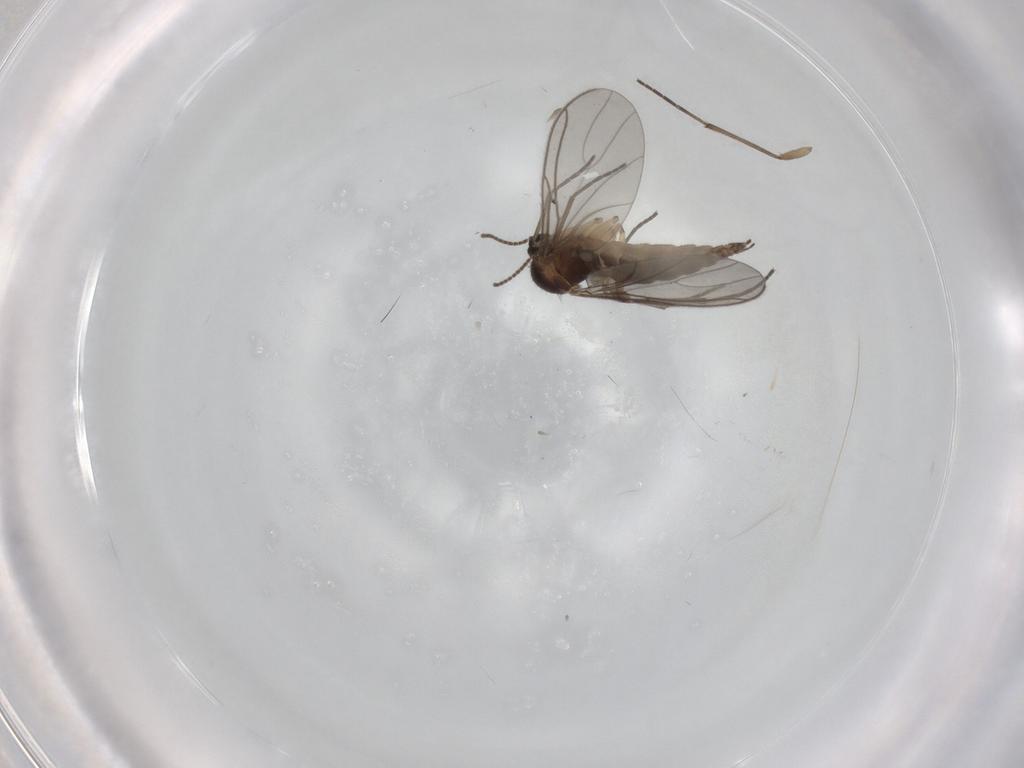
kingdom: Animalia
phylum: Arthropoda
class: Insecta
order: Diptera
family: Sciaridae
